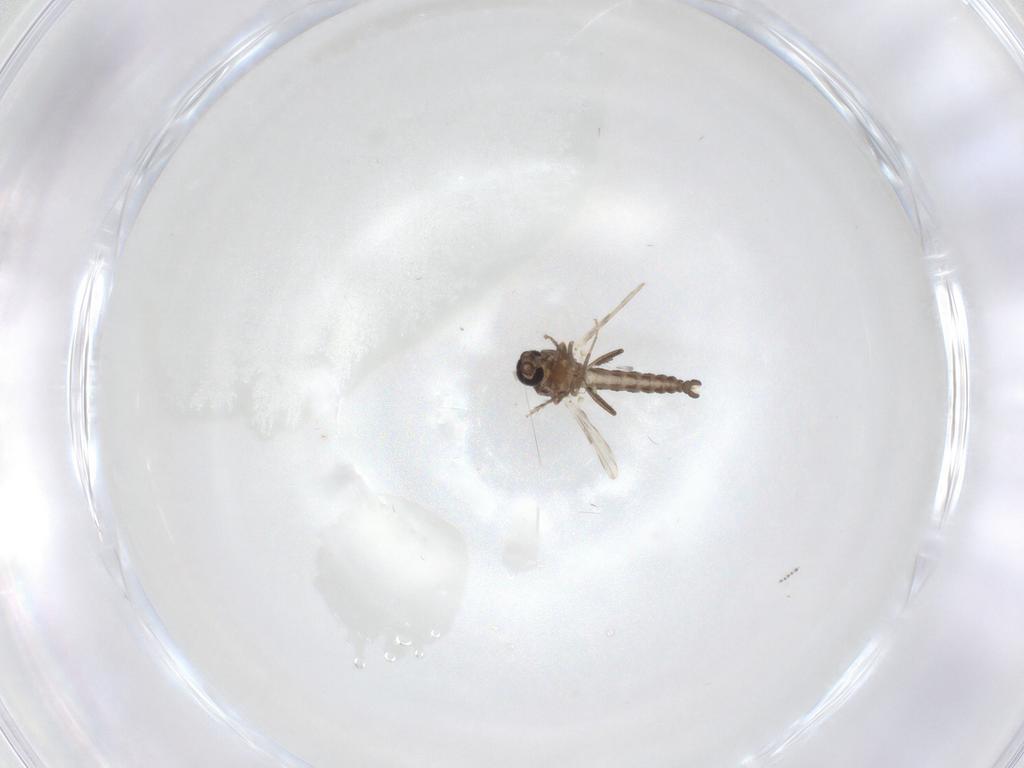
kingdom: Animalia
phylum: Arthropoda
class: Insecta
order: Diptera
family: Ceratopogonidae
